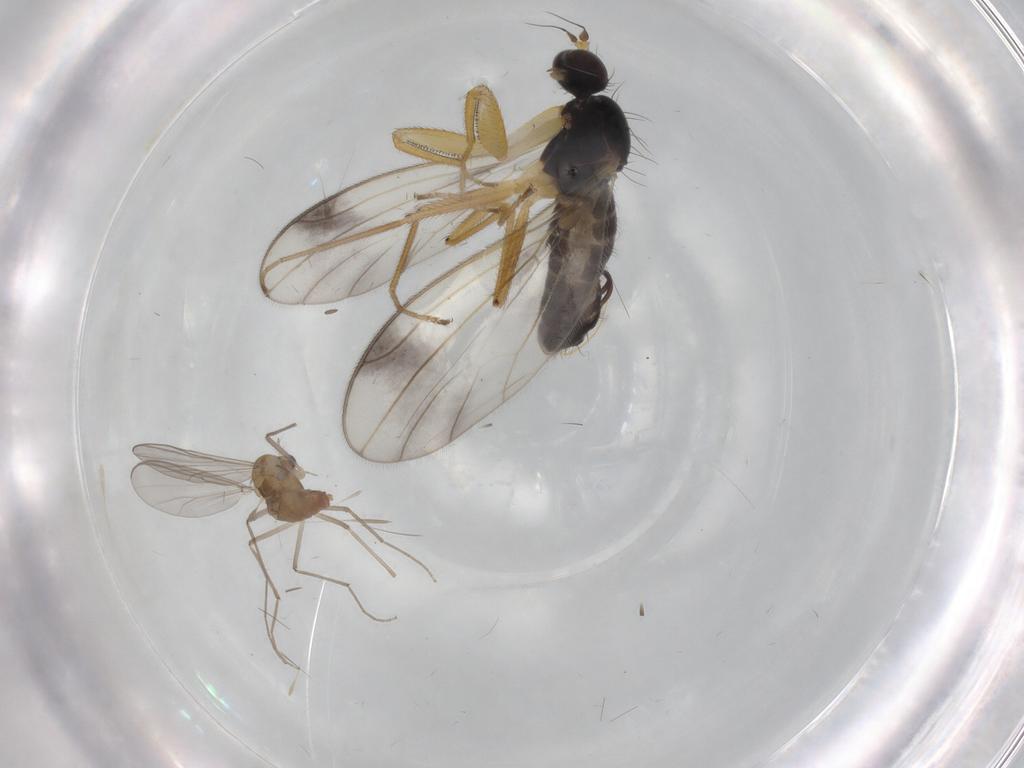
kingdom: Animalia
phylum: Arthropoda
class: Insecta
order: Diptera
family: Chironomidae
